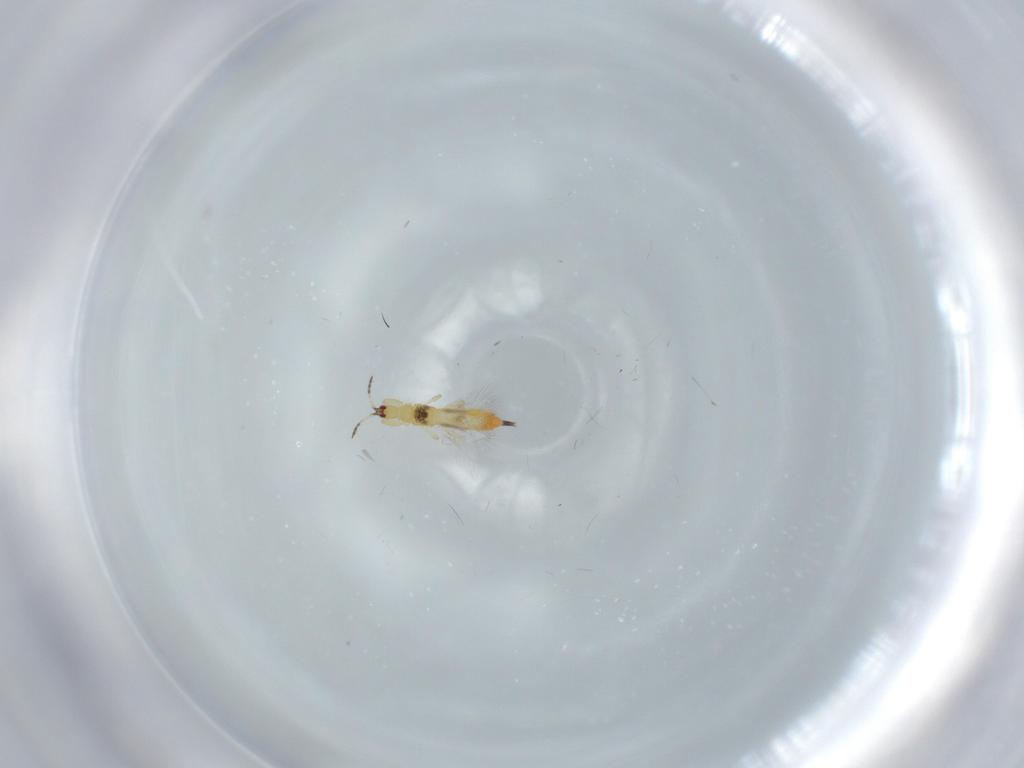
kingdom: Animalia
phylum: Arthropoda
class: Insecta
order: Thysanoptera
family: Phlaeothripidae
